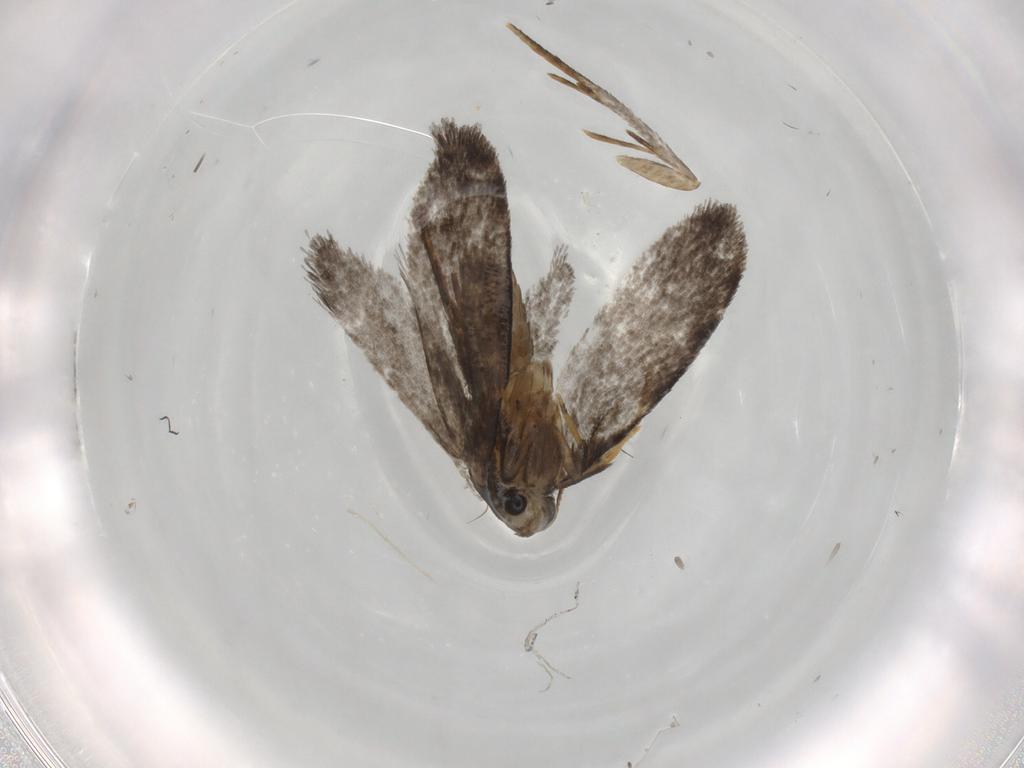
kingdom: Animalia
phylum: Arthropoda
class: Insecta
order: Lepidoptera
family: Psychidae
